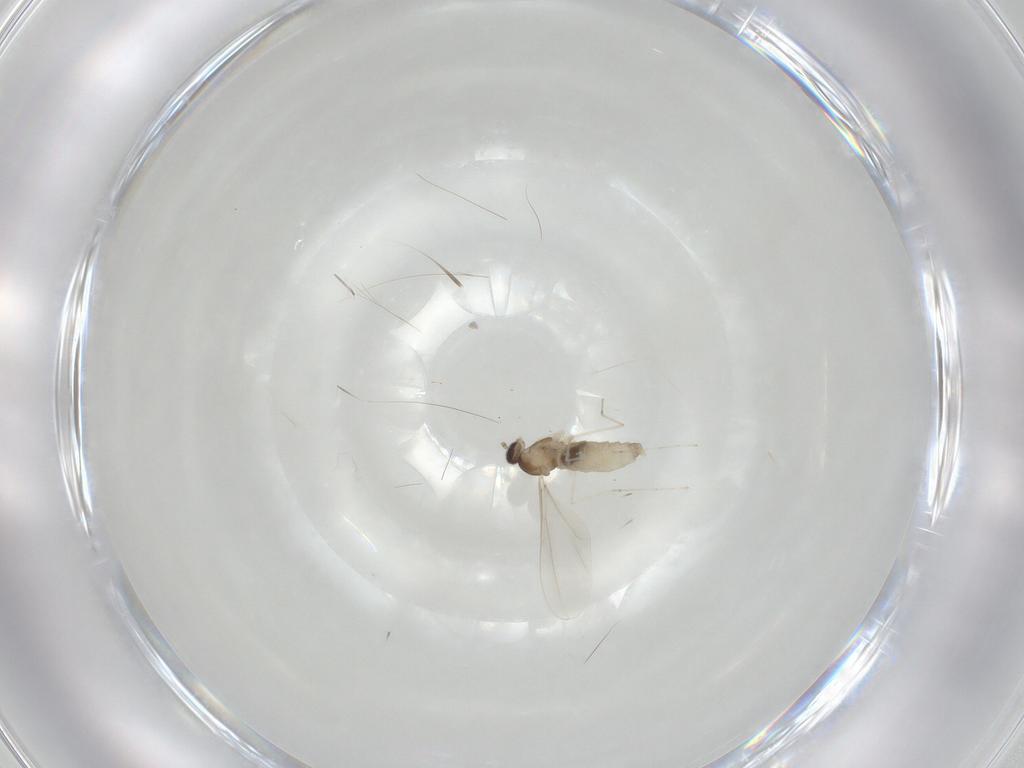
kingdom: Animalia
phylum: Arthropoda
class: Insecta
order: Diptera
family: Cecidomyiidae
